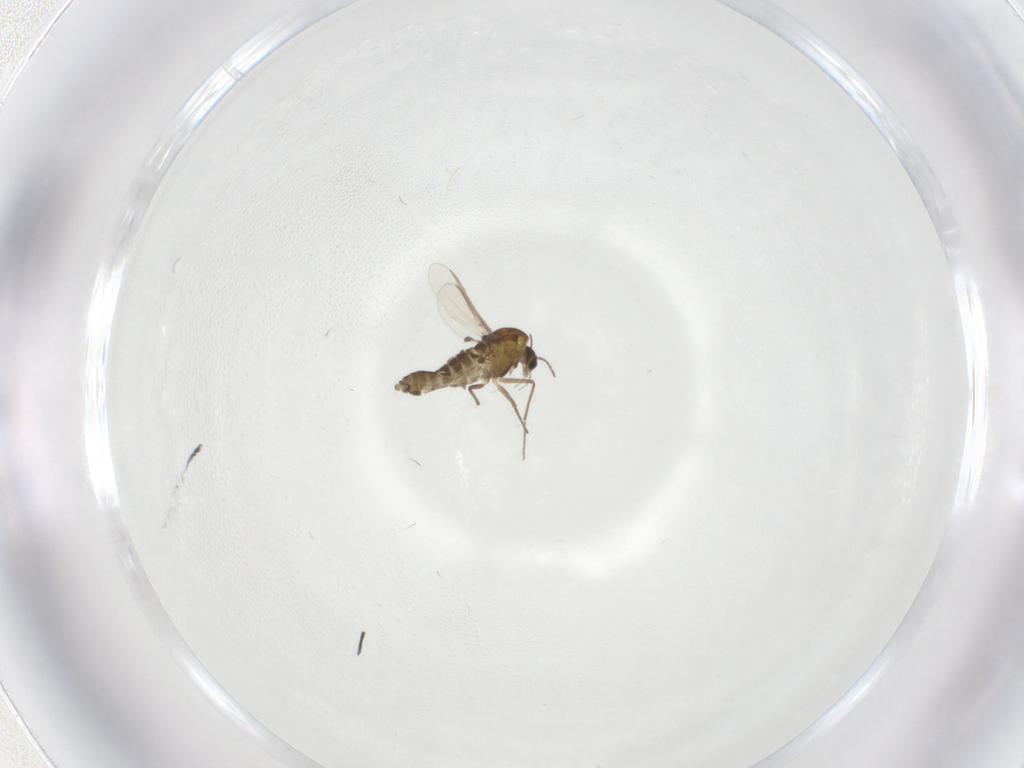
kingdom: Animalia
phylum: Arthropoda
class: Insecta
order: Diptera
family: Chironomidae
